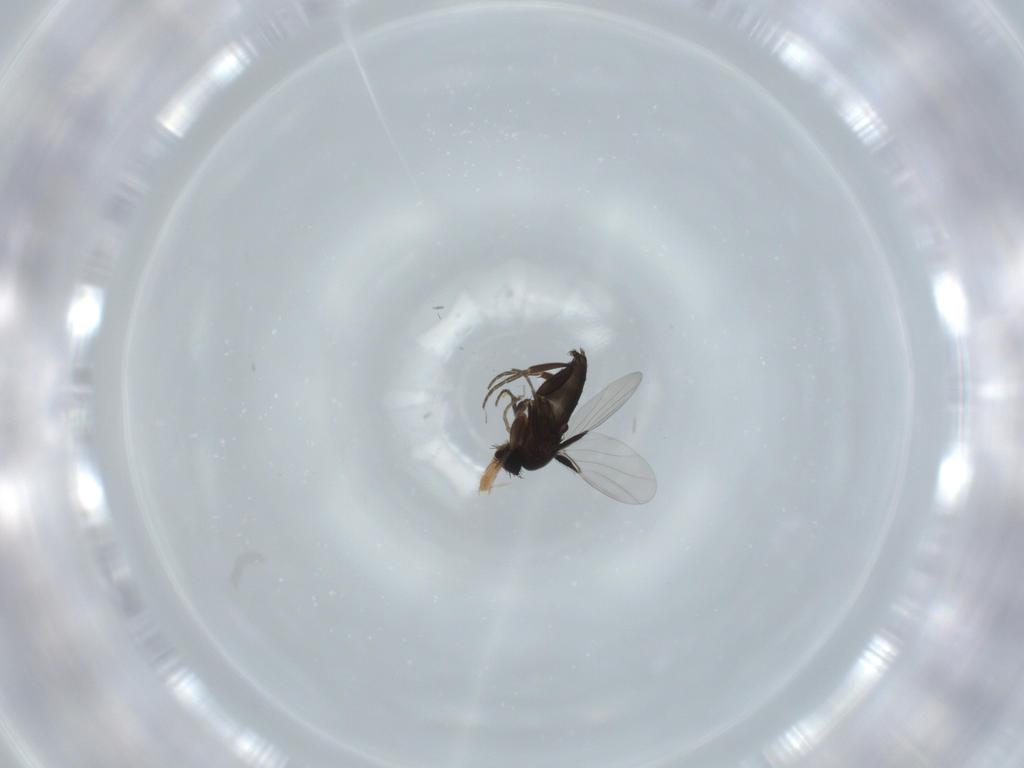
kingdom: Animalia
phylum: Arthropoda
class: Insecta
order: Diptera
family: Phoridae
